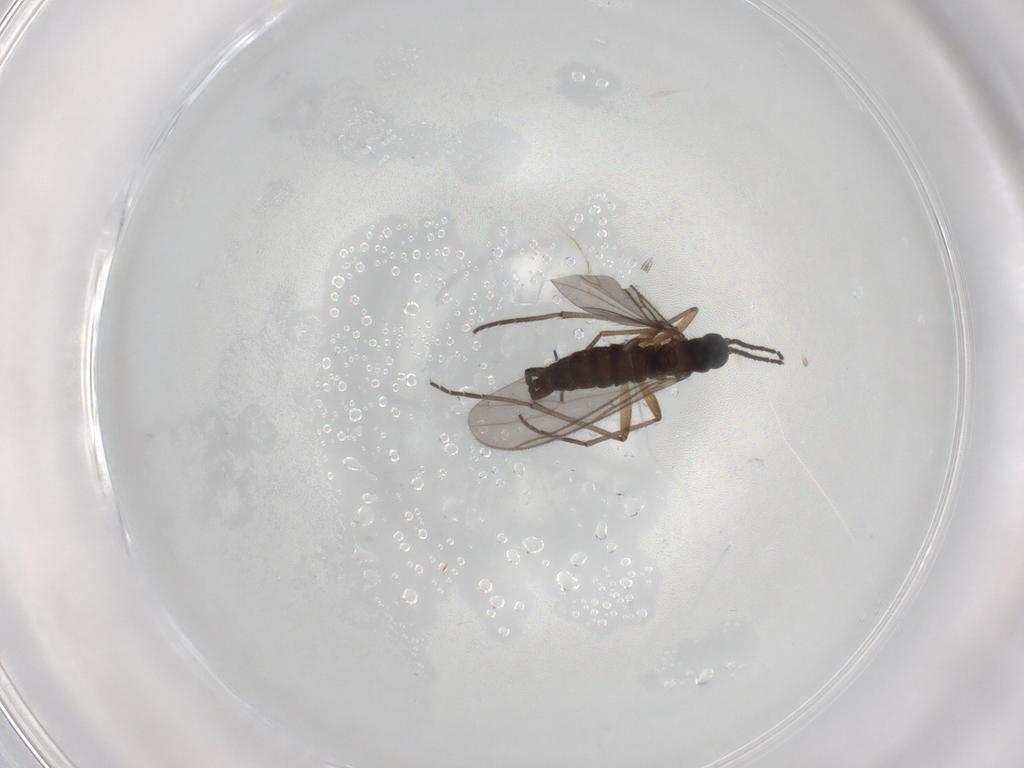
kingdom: Animalia
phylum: Arthropoda
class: Insecta
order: Diptera
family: Sciaridae
